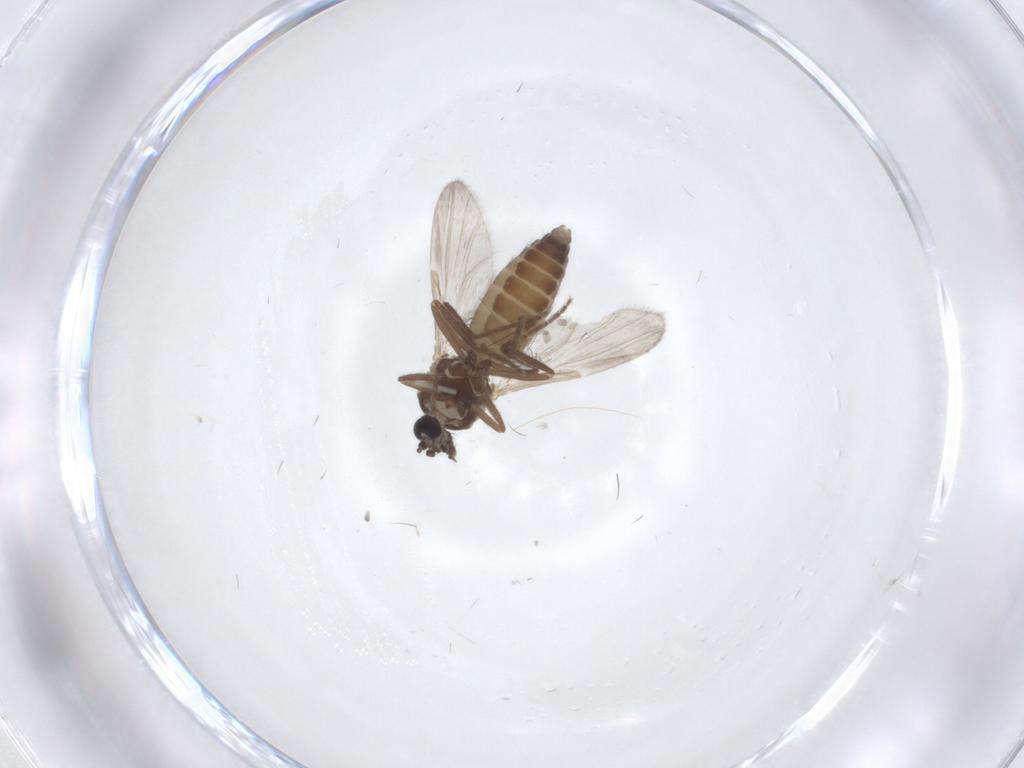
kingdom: Animalia
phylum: Arthropoda
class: Insecta
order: Diptera
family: Ceratopogonidae
